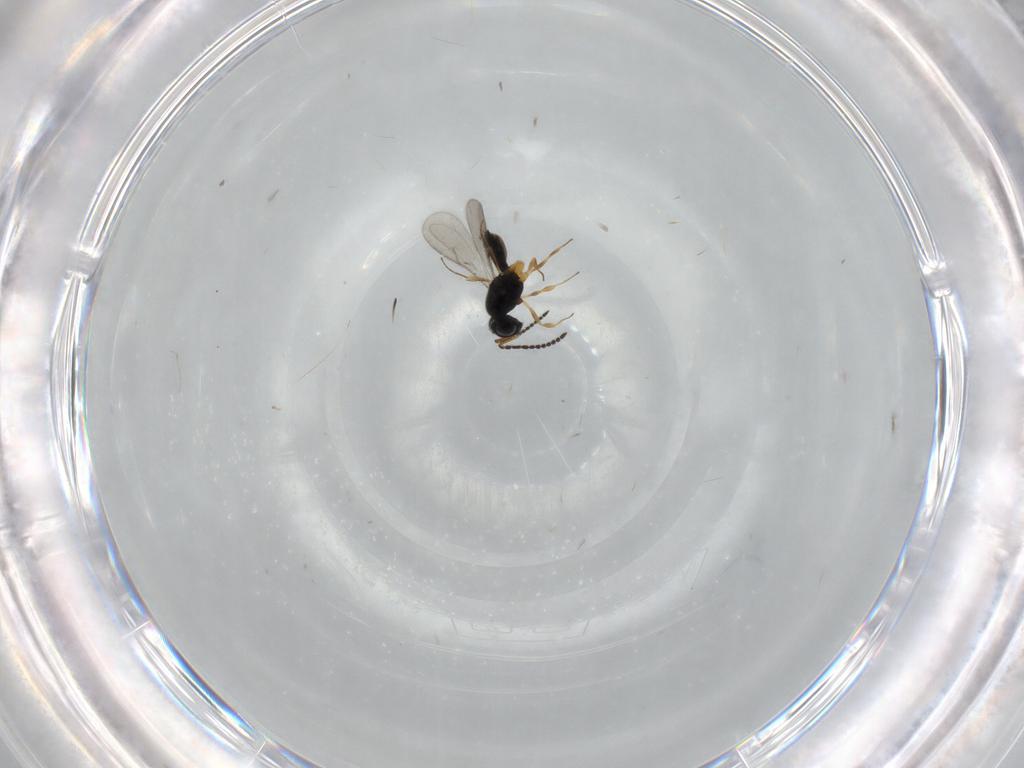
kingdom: Animalia
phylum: Arthropoda
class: Insecta
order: Hymenoptera
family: Scelionidae
